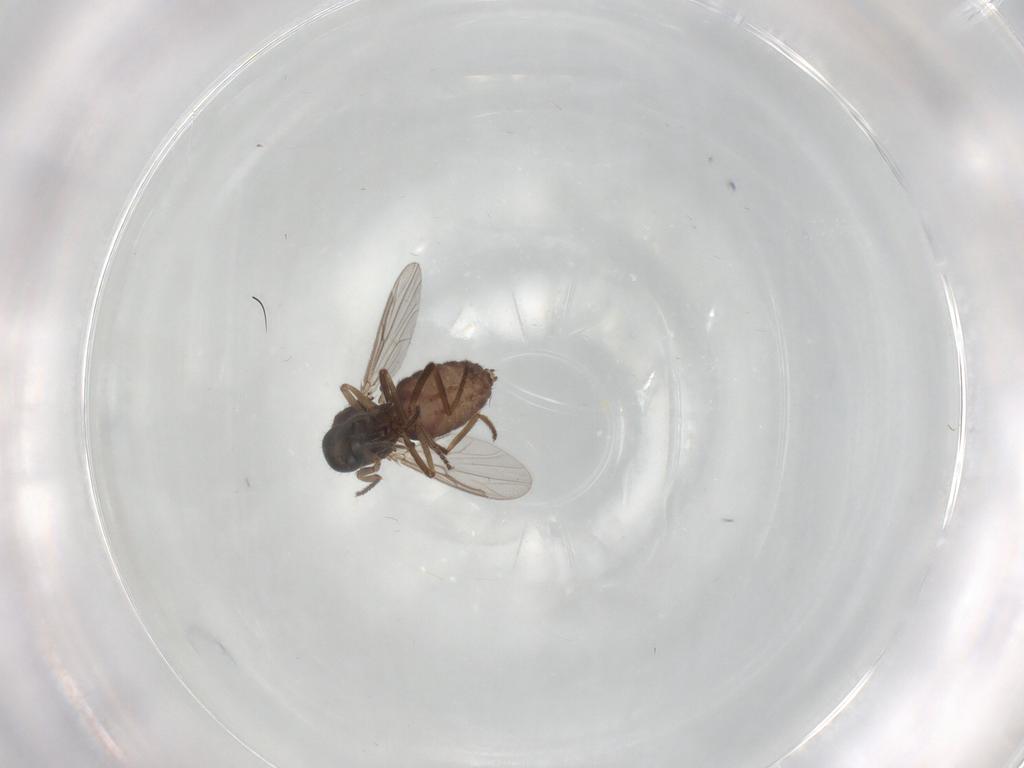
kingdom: Animalia
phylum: Arthropoda
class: Insecta
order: Diptera
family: Ceratopogonidae
